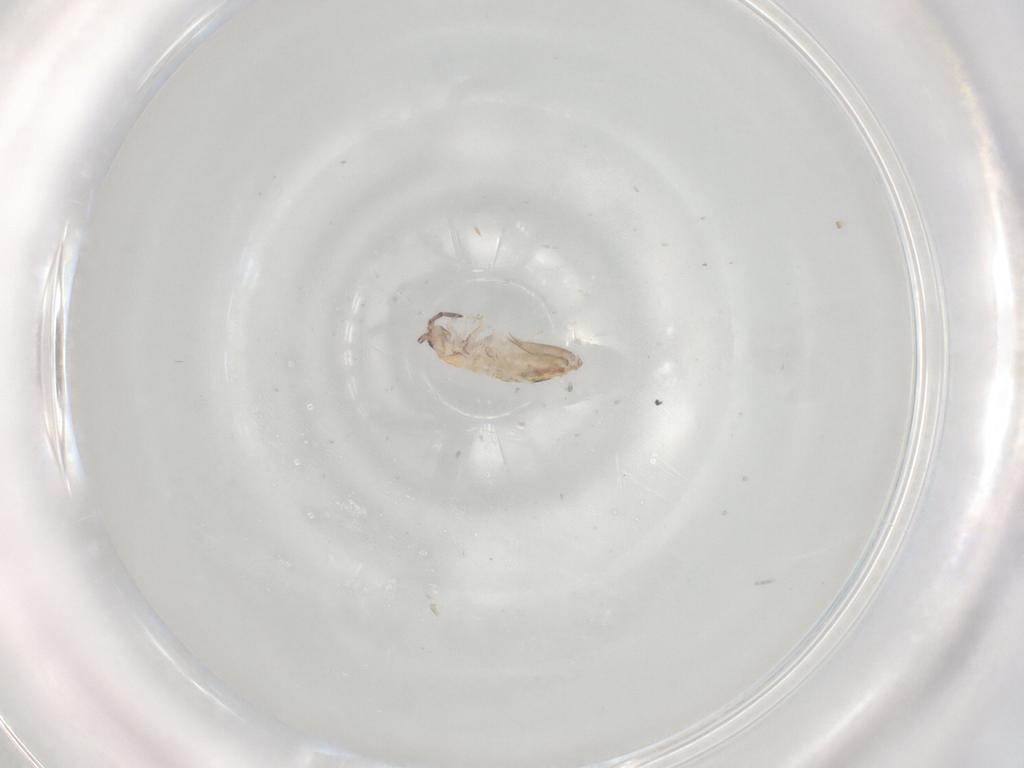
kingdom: Animalia
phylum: Arthropoda
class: Collembola
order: Entomobryomorpha
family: Entomobryidae
